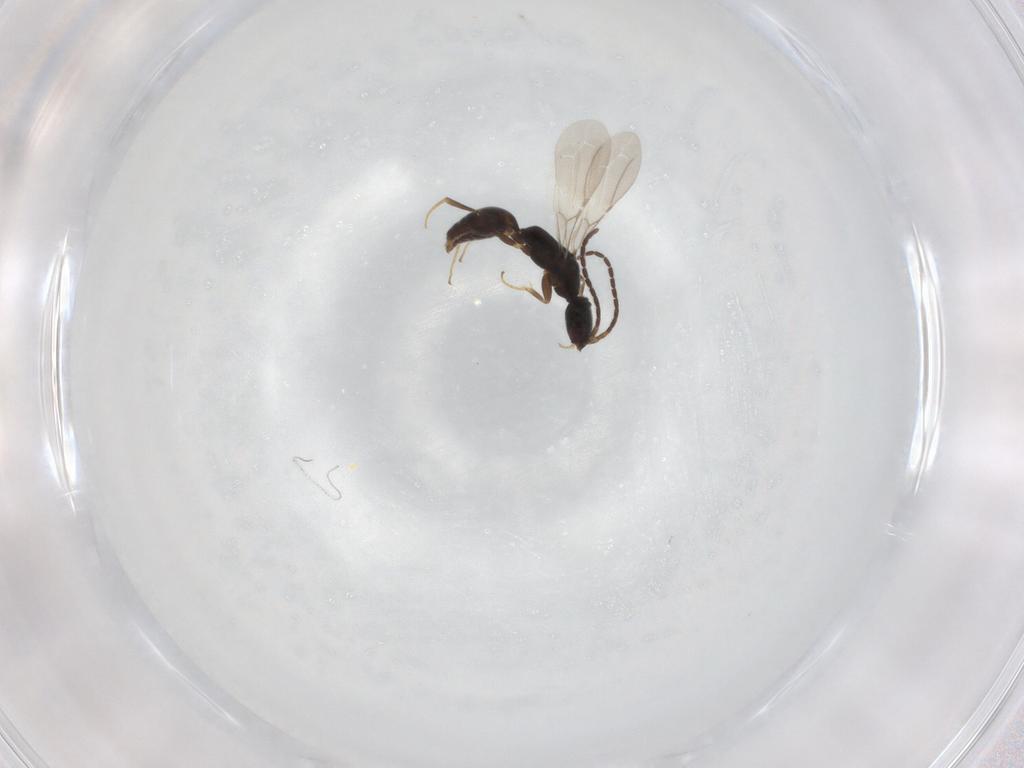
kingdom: Animalia
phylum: Arthropoda
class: Insecta
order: Hymenoptera
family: Bethylidae
